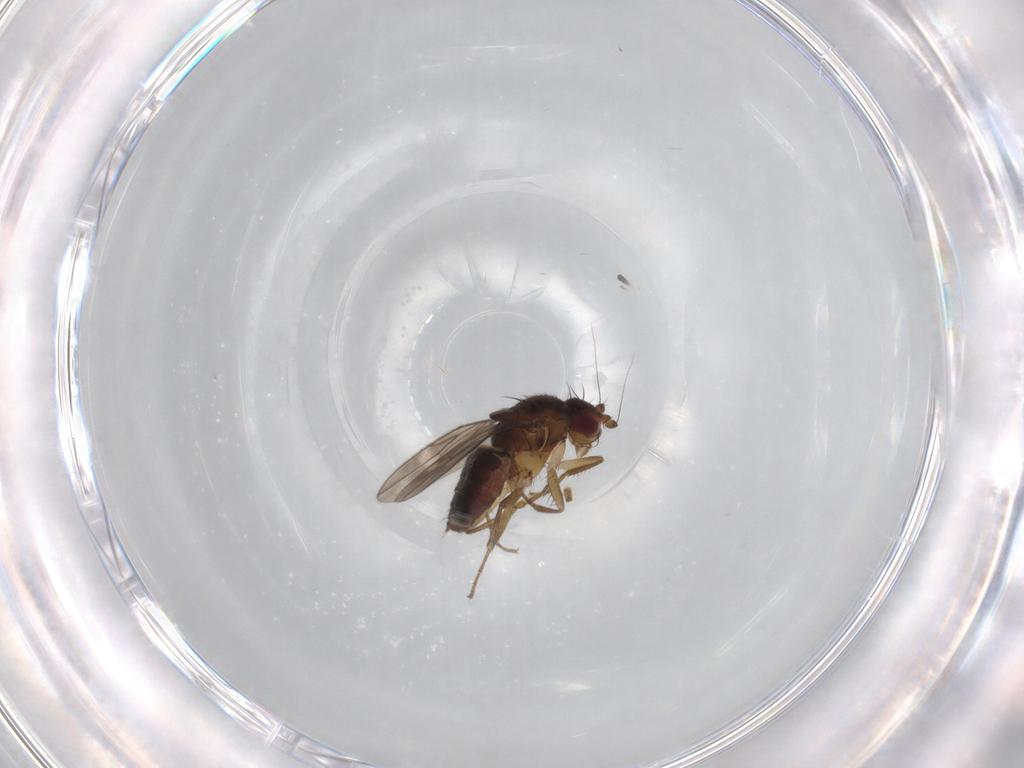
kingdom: Animalia
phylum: Arthropoda
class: Insecta
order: Diptera
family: Sphaeroceridae
